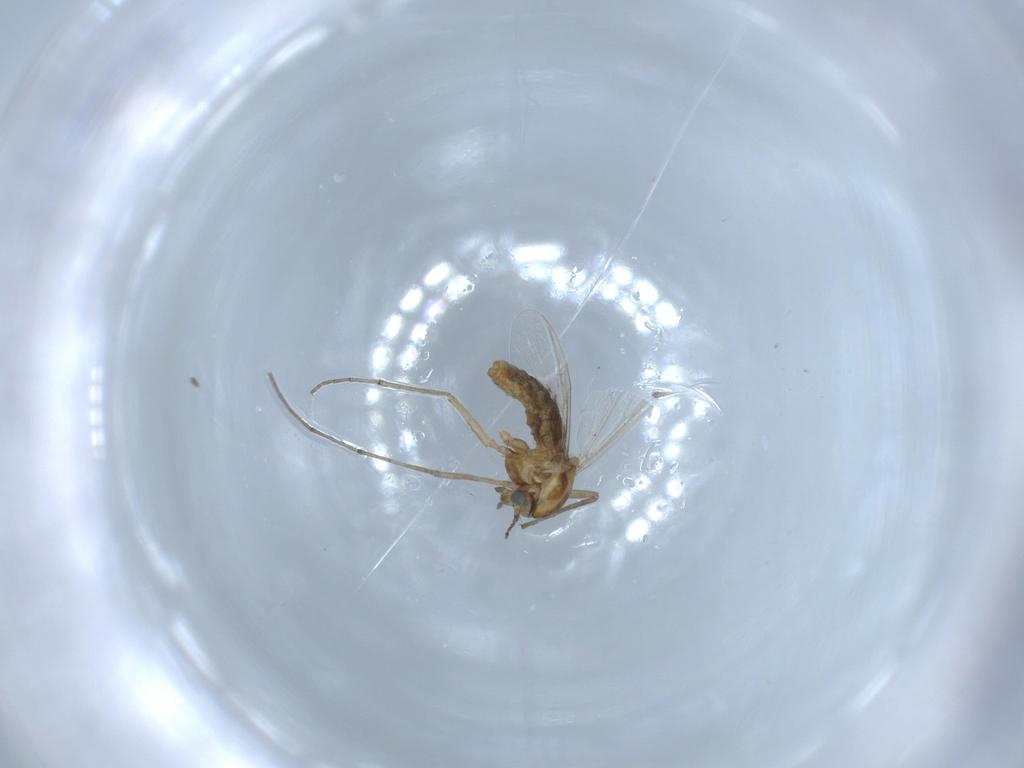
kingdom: Animalia
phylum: Arthropoda
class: Insecta
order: Diptera
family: Chironomidae
